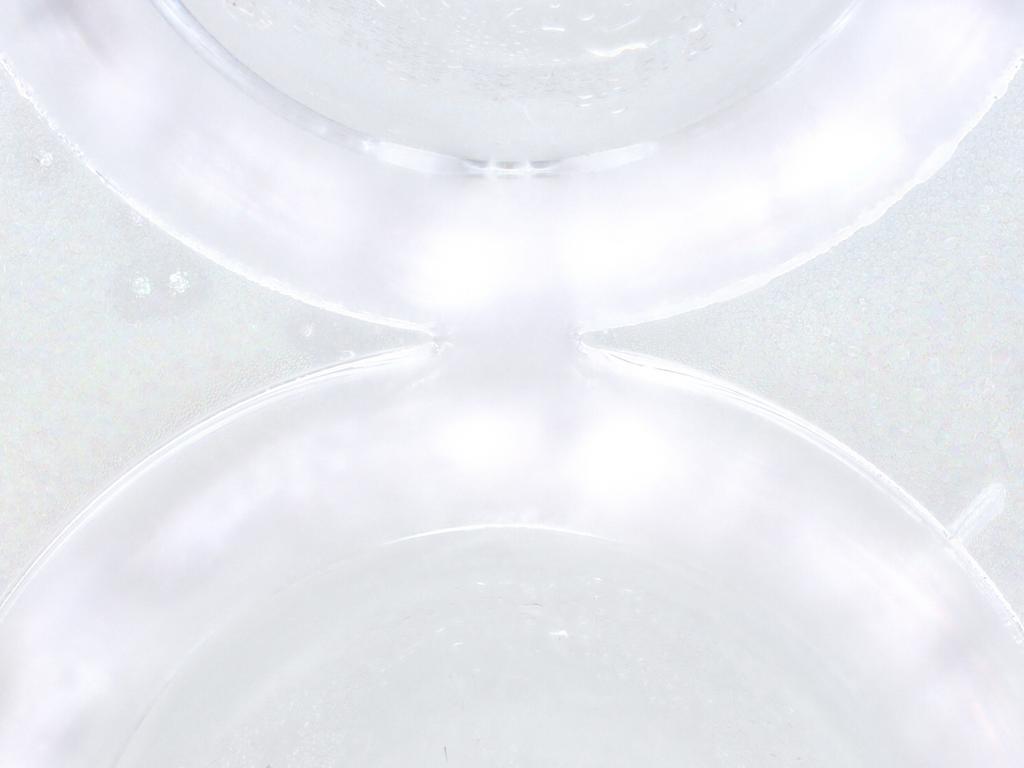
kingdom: Animalia
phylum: Arthropoda
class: Insecta
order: Diptera
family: Ceratopogonidae
